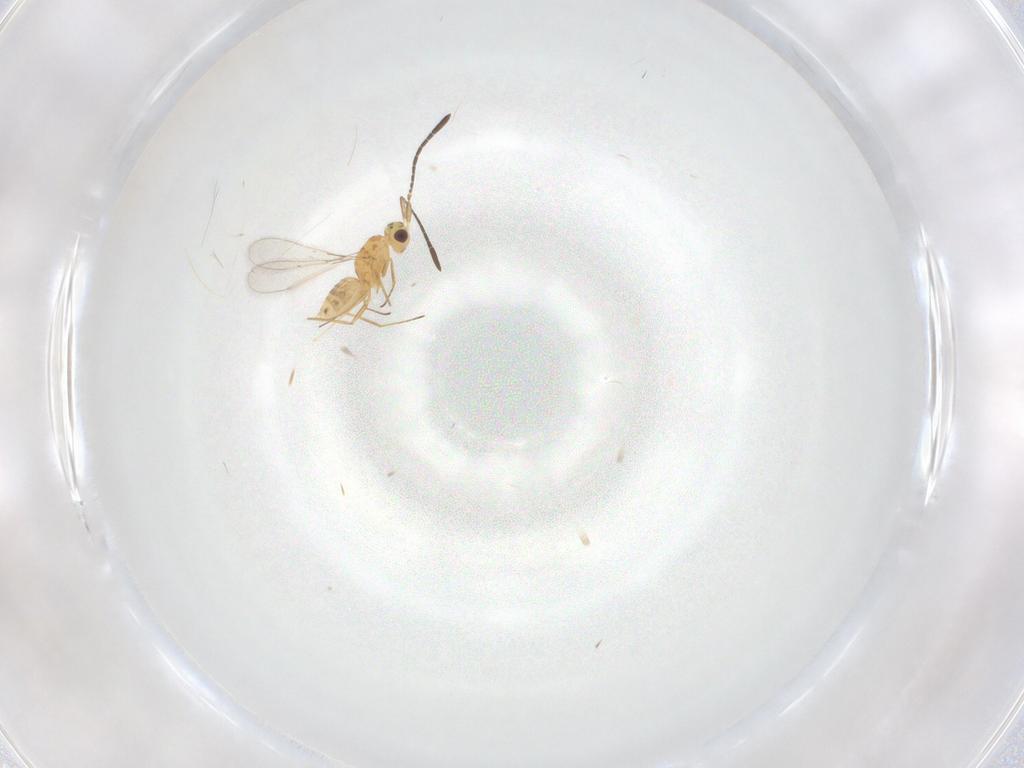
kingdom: Animalia
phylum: Arthropoda
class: Insecta
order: Hymenoptera
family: Mymaridae
